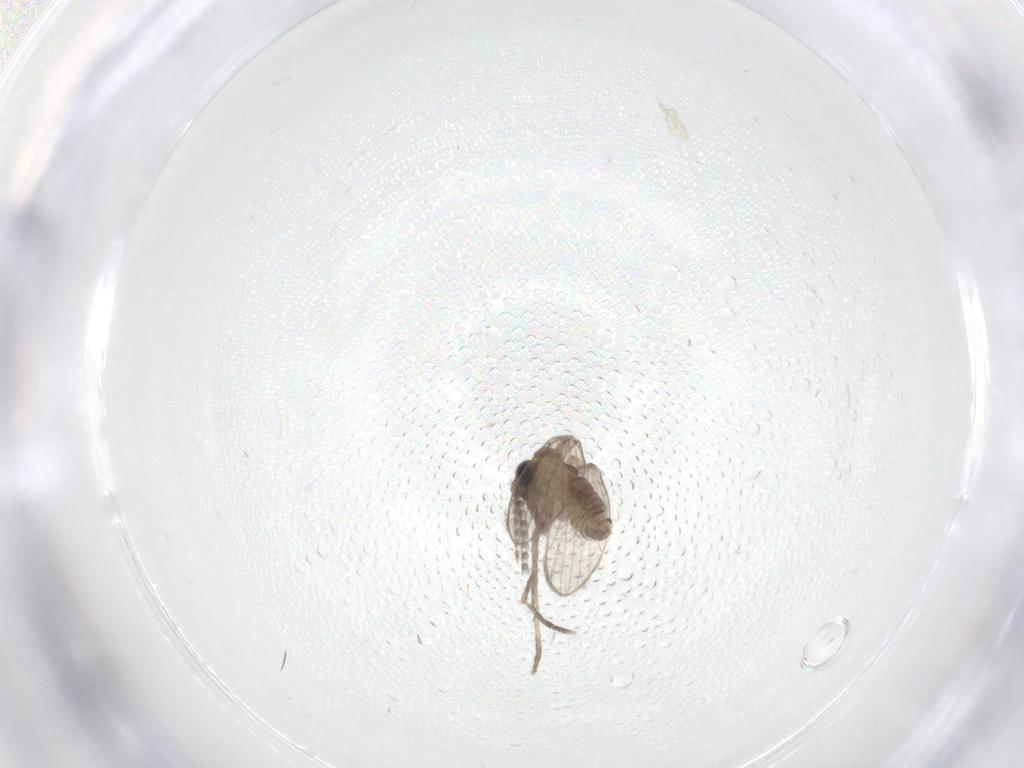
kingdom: Animalia
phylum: Arthropoda
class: Insecta
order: Diptera
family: Psychodidae
